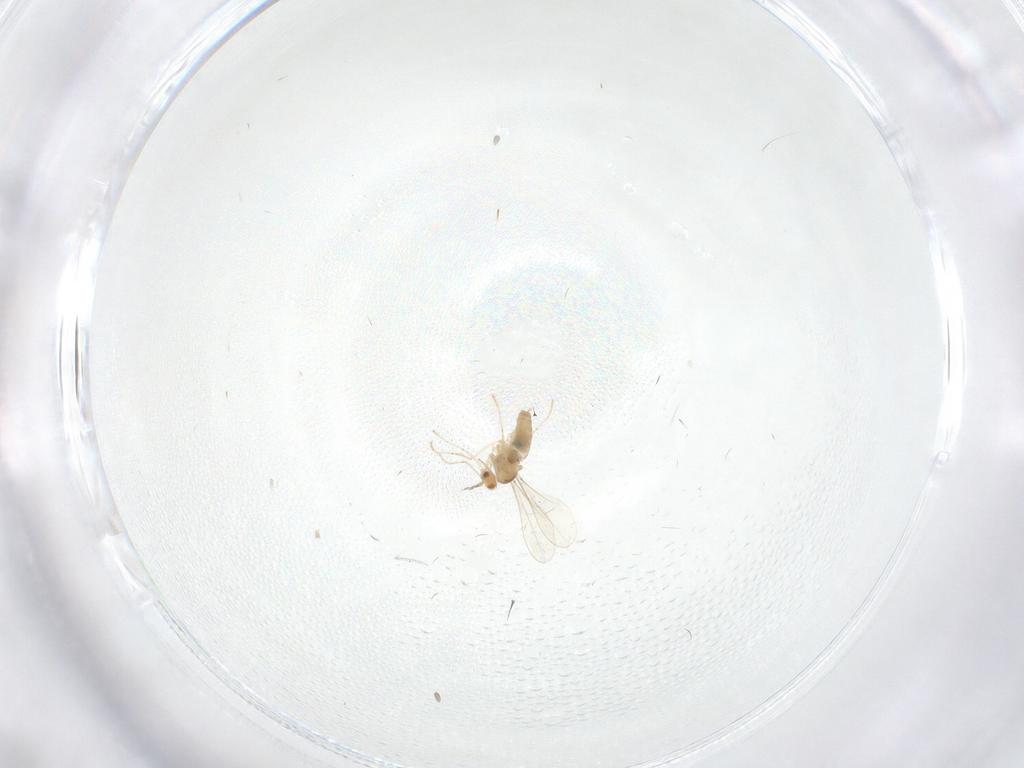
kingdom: Animalia
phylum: Arthropoda
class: Insecta
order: Diptera
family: Cecidomyiidae
